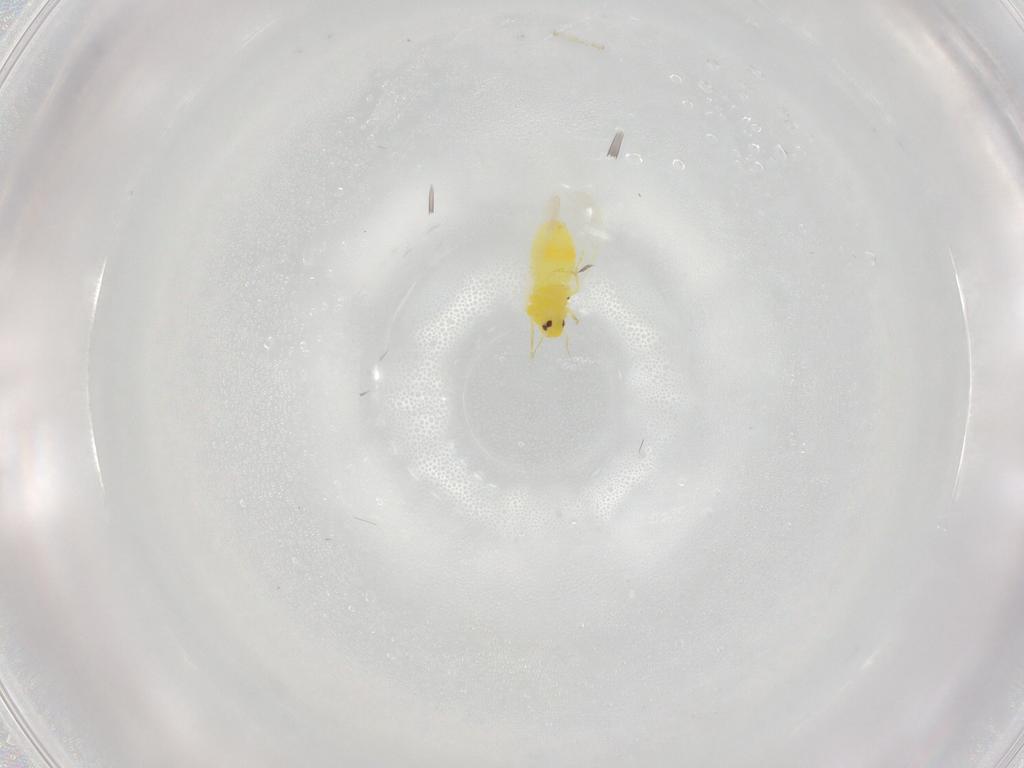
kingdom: Animalia
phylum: Arthropoda
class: Insecta
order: Hemiptera
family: Aleyrodidae
